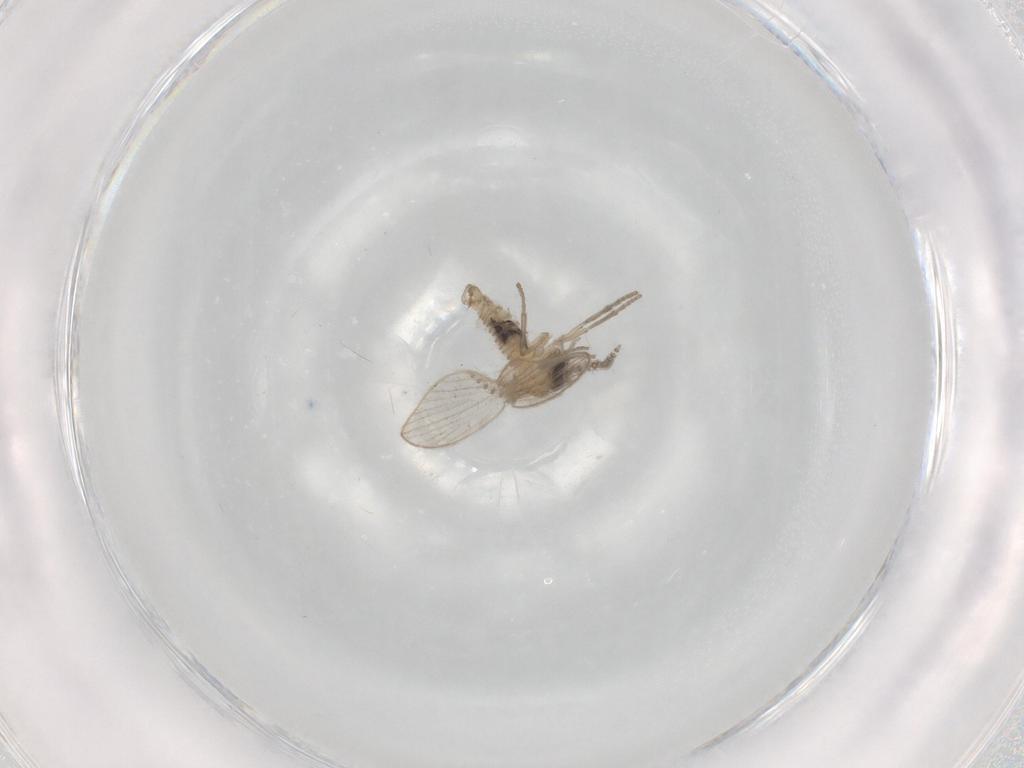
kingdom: Animalia
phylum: Arthropoda
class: Insecta
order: Diptera
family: Psychodidae
